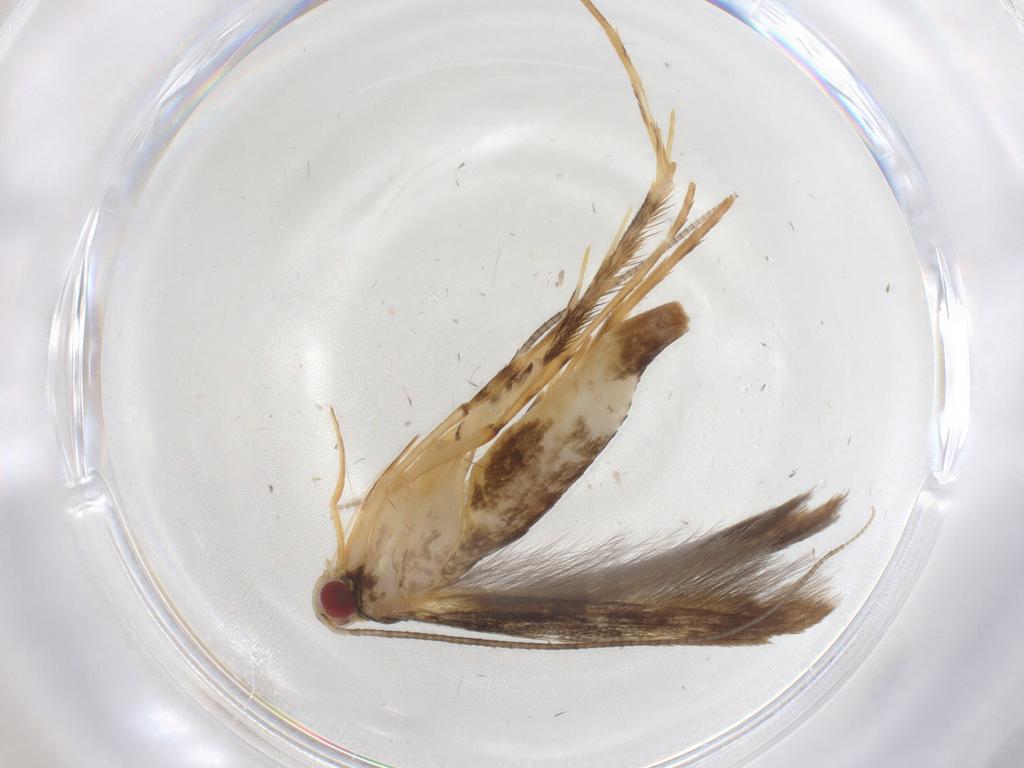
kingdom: Animalia
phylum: Arthropoda
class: Insecta
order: Lepidoptera
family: Gracillariidae
